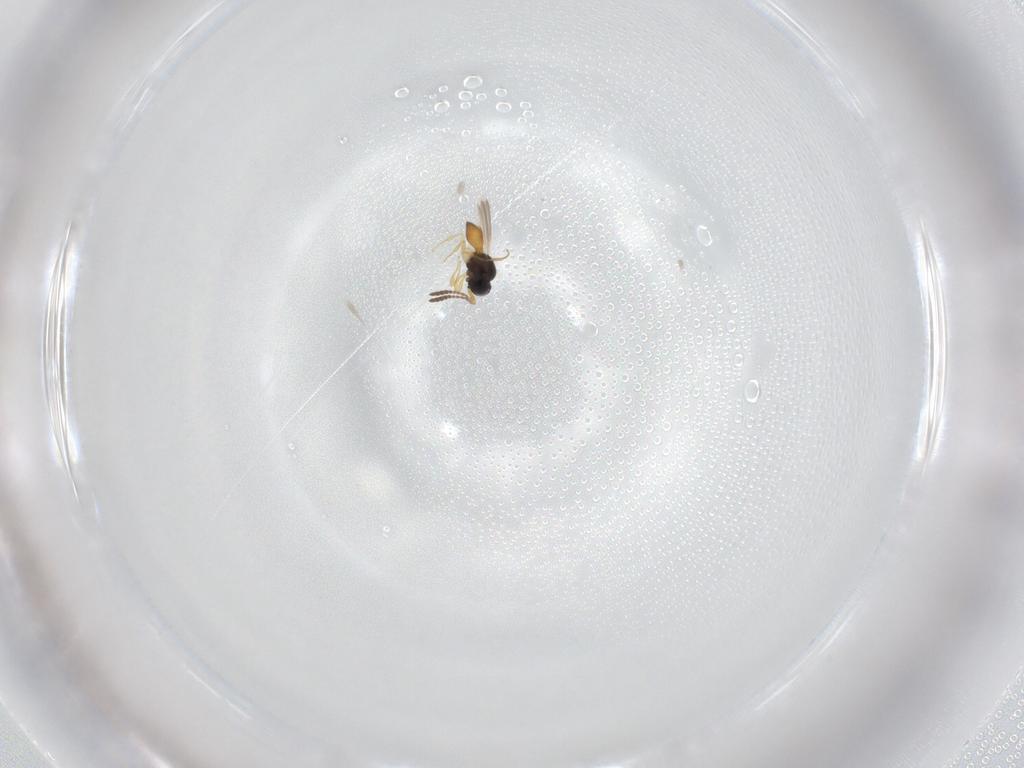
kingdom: Animalia
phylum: Arthropoda
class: Insecta
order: Hymenoptera
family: Scelionidae
